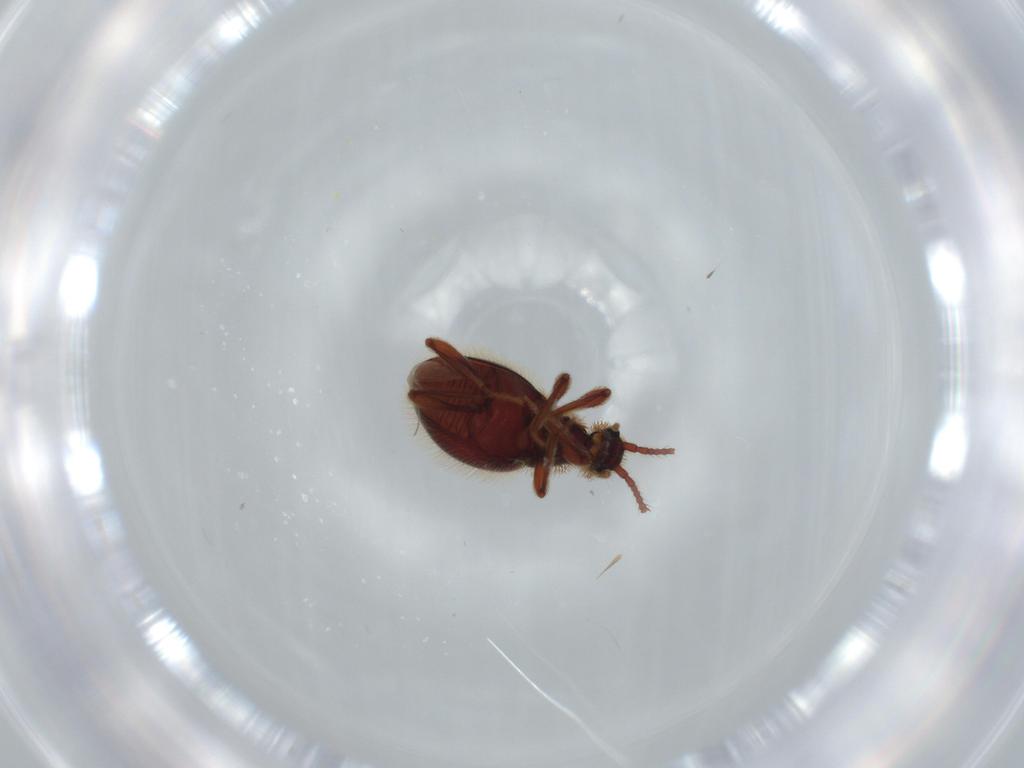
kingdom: Animalia
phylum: Arthropoda
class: Insecta
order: Coleoptera
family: Staphylinidae
